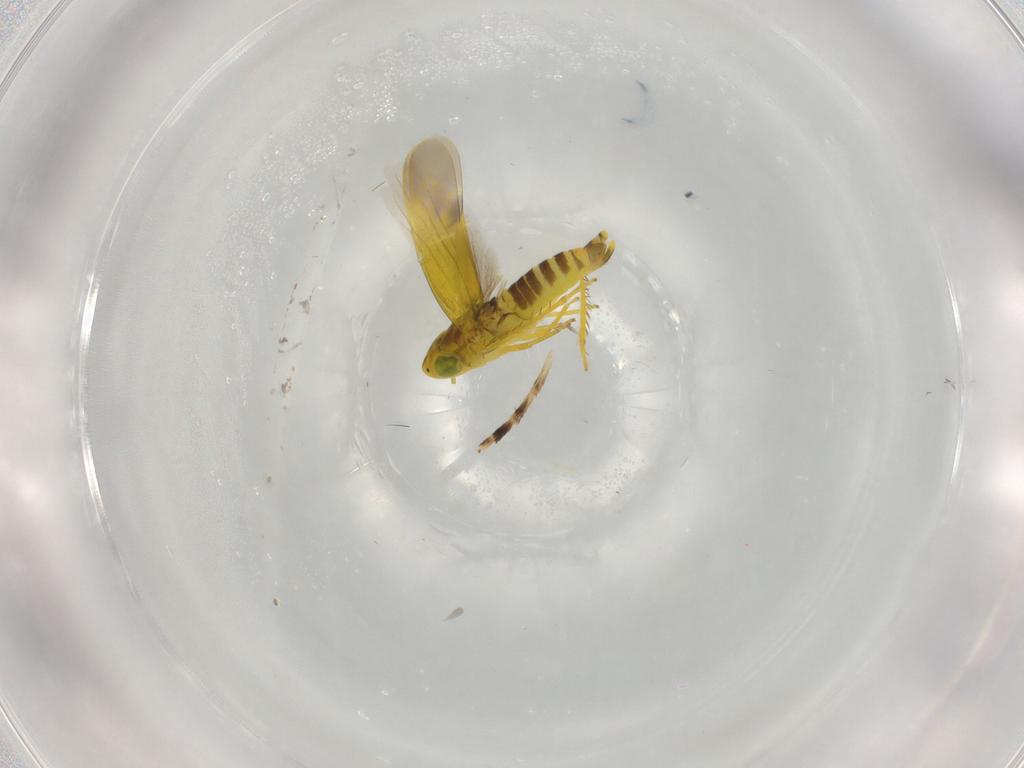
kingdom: Animalia
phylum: Arthropoda
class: Insecta
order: Hemiptera
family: Cicadellidae
